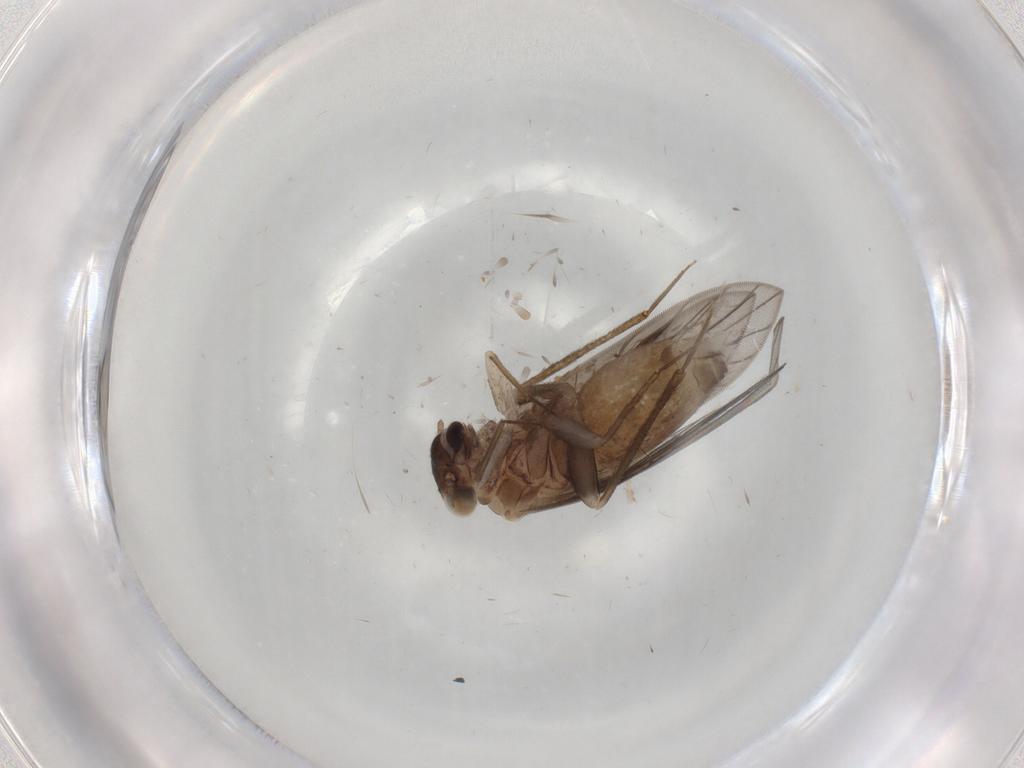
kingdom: Animalia
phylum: Arthropoda
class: Insecta
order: Psocodea
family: Lepidopsocidae
